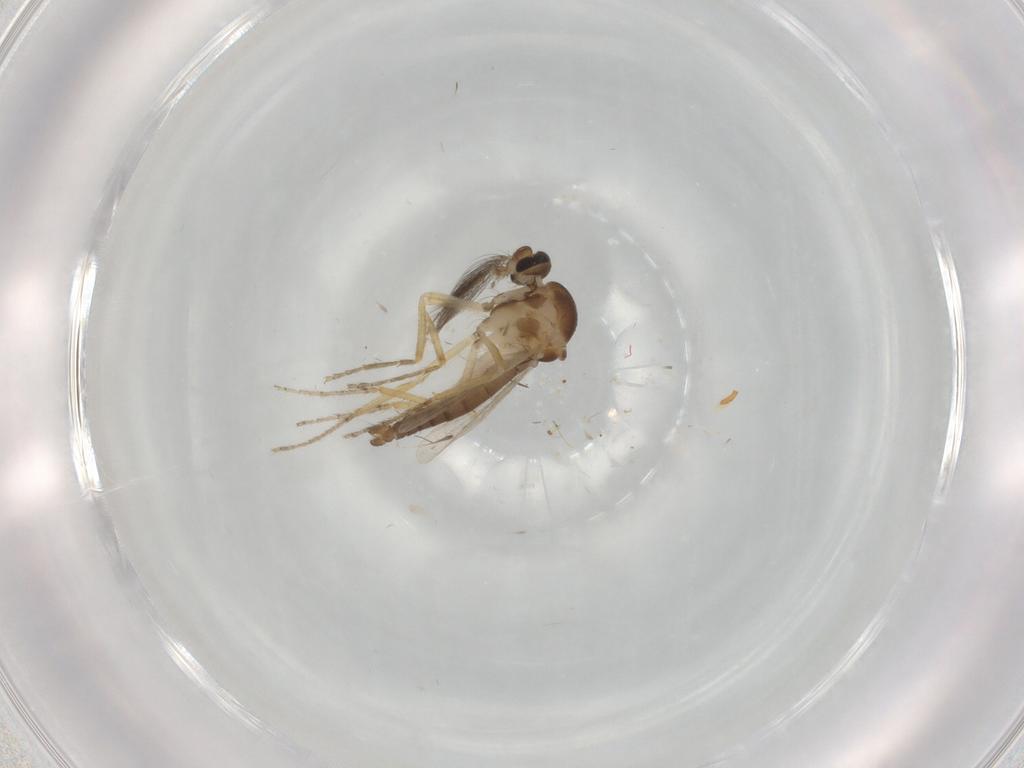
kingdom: Animalia
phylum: Arthropoda
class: Insecta
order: Diptera
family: Ceratopogonidae
